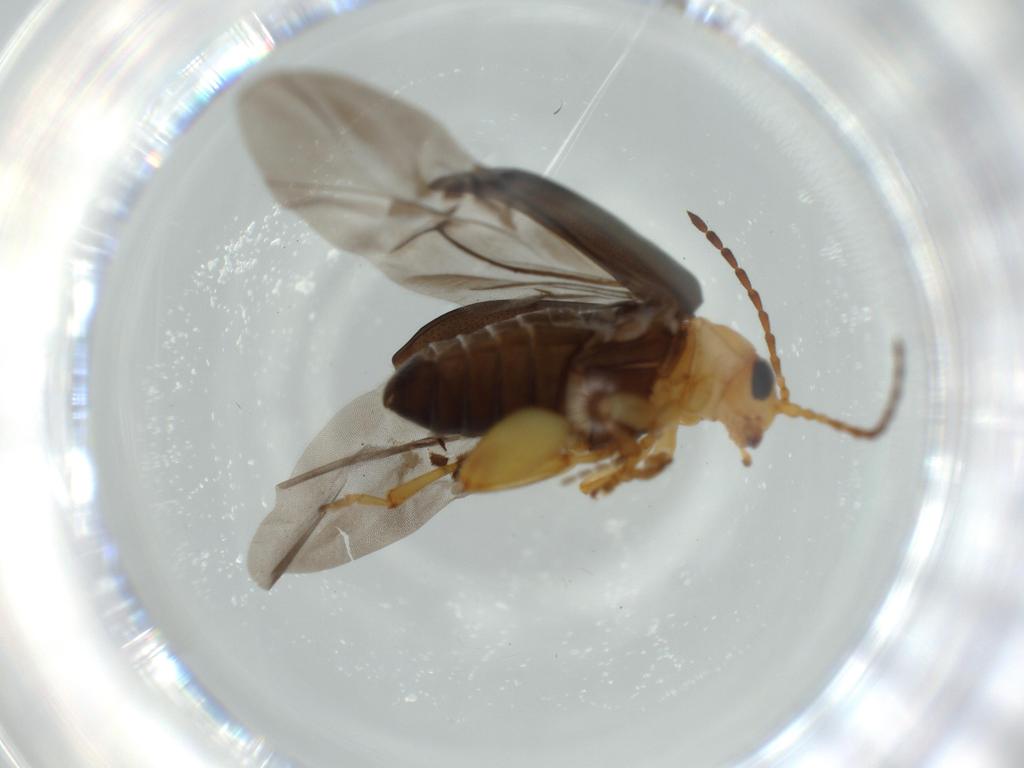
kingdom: Animalia
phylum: Arthropoda
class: Insecta
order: Coleoptera
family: Chrysomelidae
